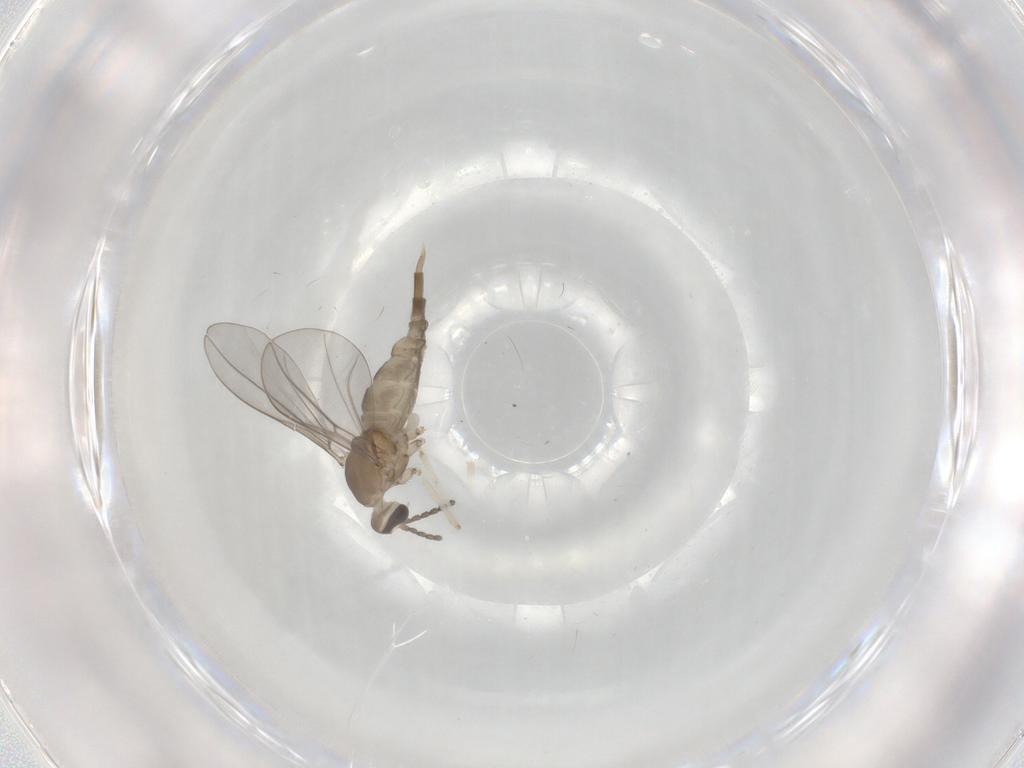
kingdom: Animalia
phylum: Arthropoda
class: Insecta
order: Diptera
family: Cecidomyiidae
